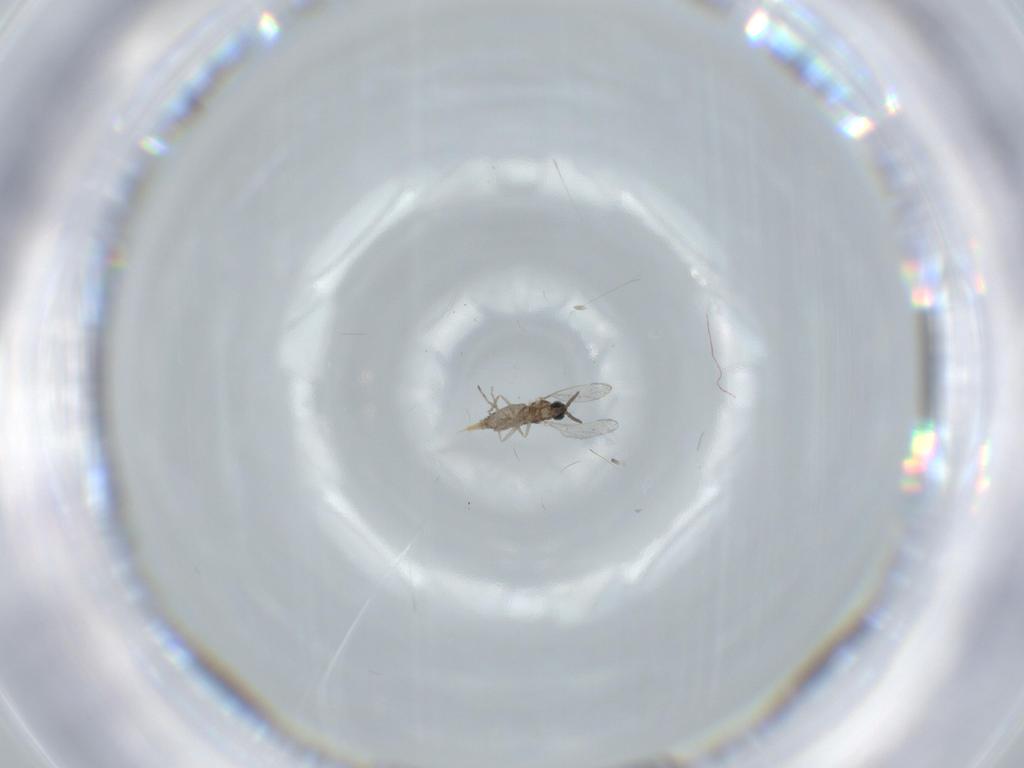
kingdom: Animalia
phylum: Arthropoda
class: Insecta
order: Diptera
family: Cecidomyiidae
